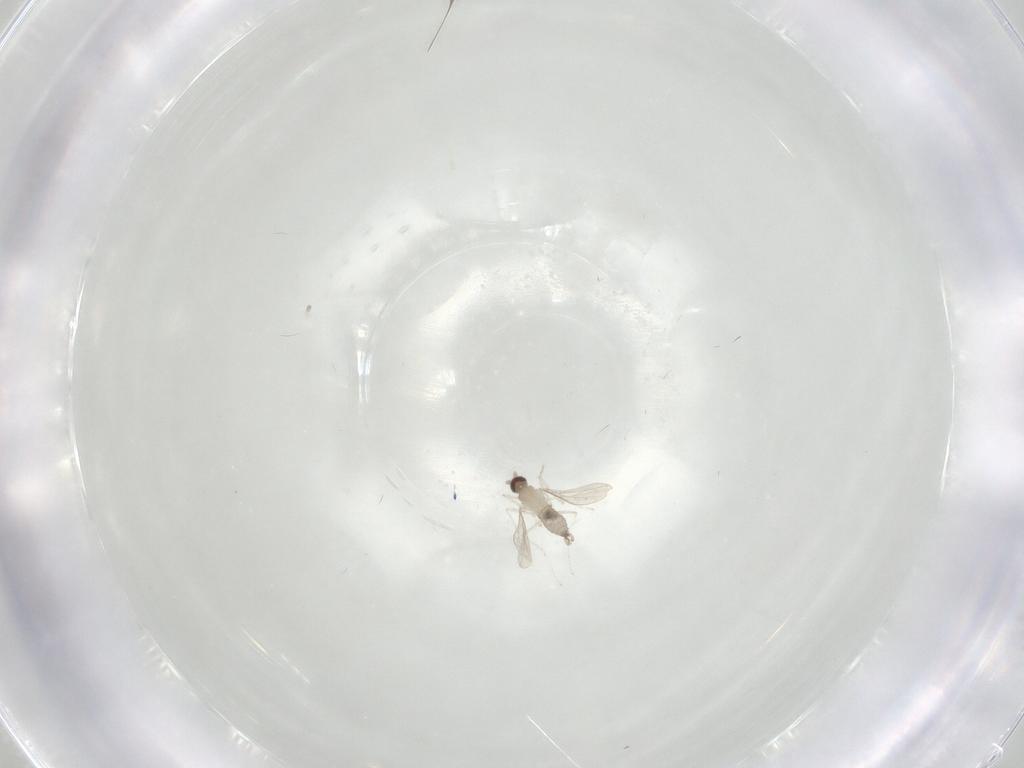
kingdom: Animalia
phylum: Arthropoda
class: Insecta
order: Diptera
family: Cecidomyiidae
